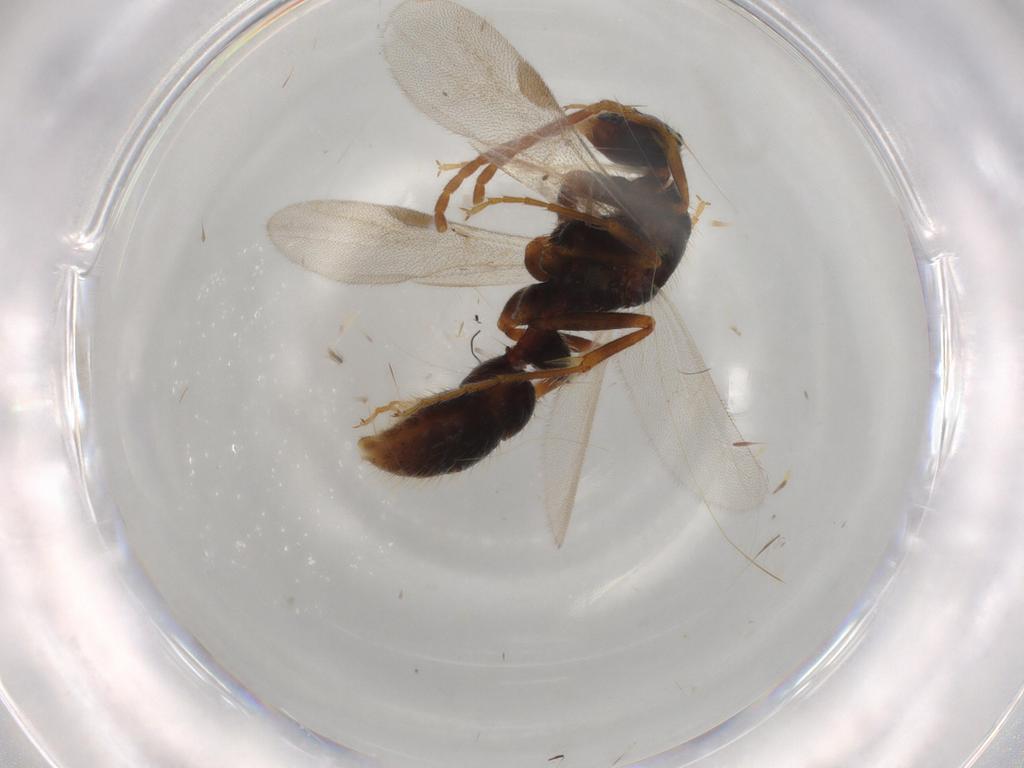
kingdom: Animalia
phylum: Arthropoda
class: Insecta
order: Hymenoptera
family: Formicidae
